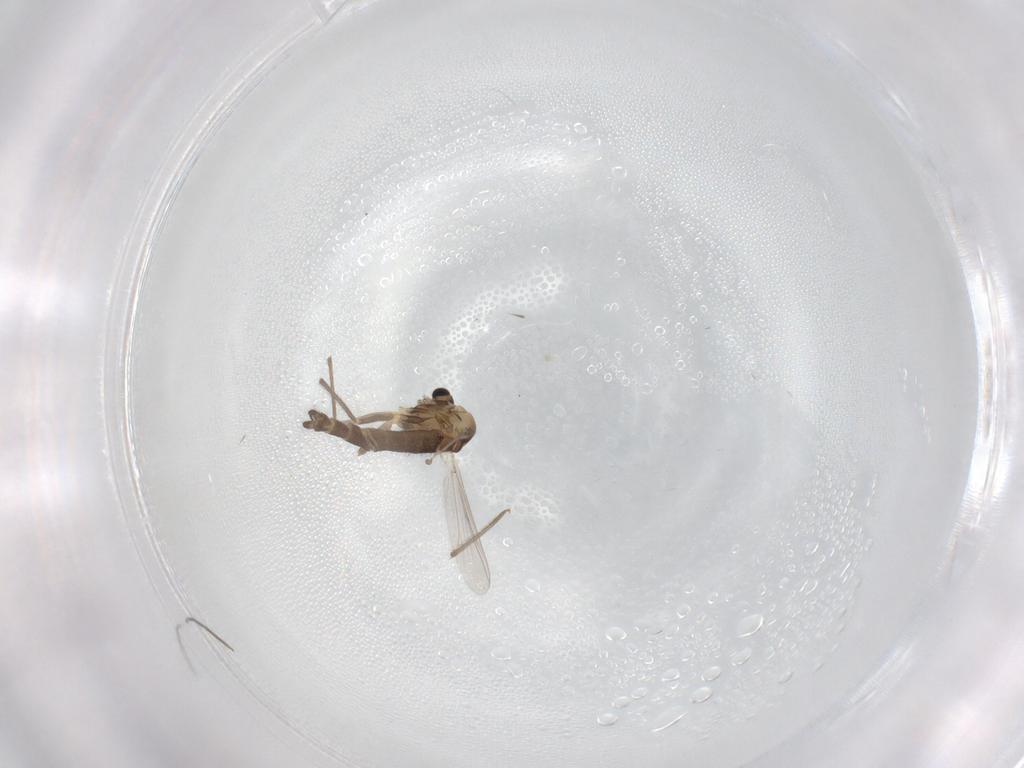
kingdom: Animalia
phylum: Arthropoda
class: Insecta
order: Diptera
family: Chironomidae
